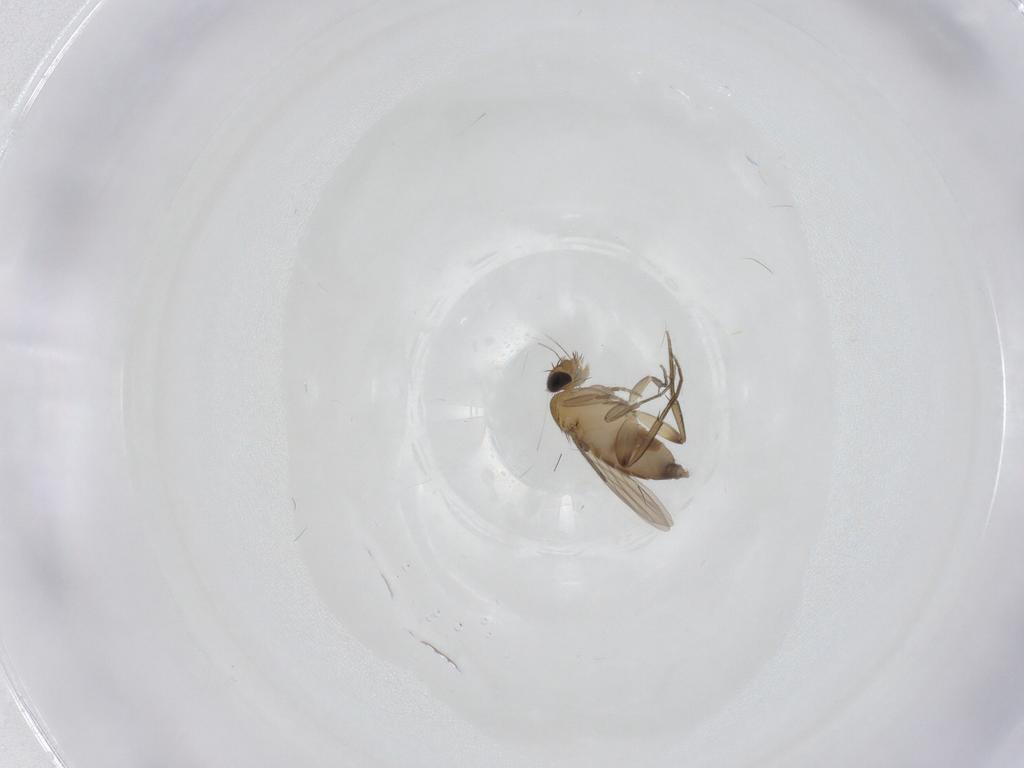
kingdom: Animalia
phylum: Arthropoda
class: Insecta
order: Diptera
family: Phoridae
